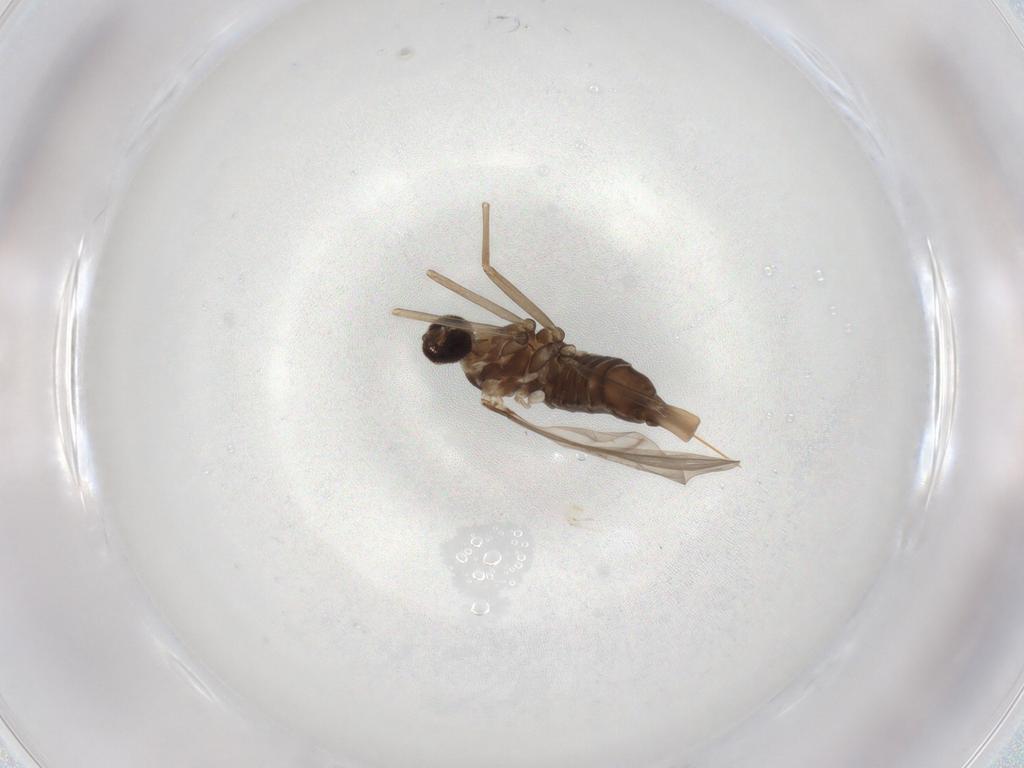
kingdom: Animalia
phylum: Arthropoda
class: Insecta
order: Diptera
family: Cecidomyiidae
